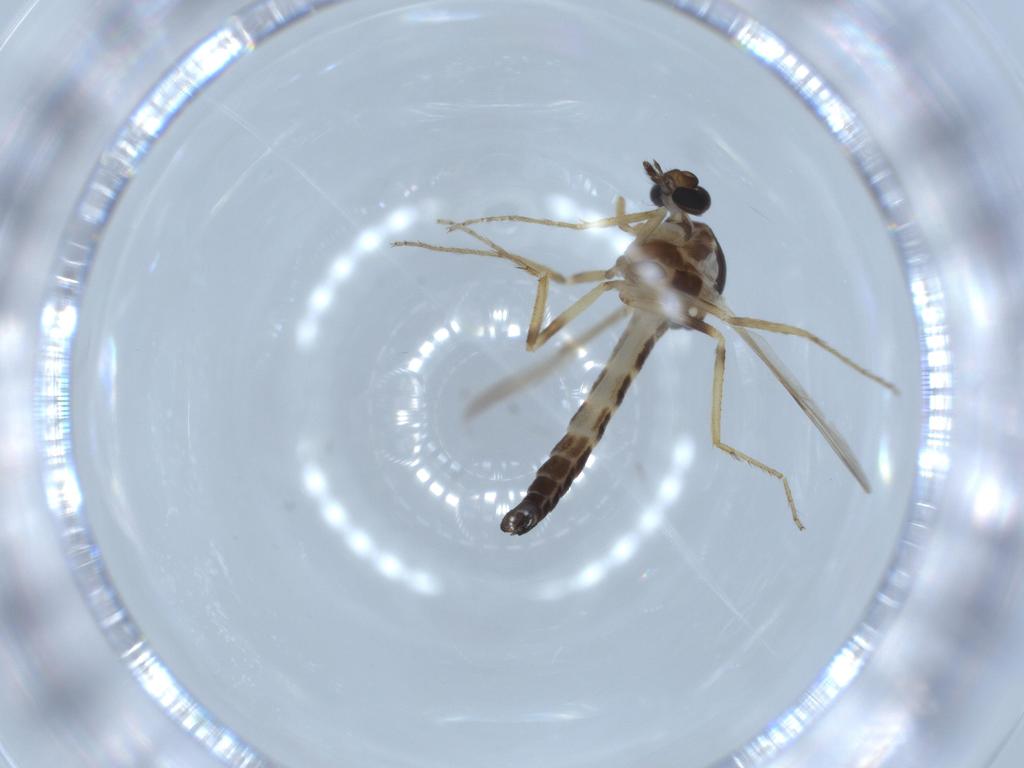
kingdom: Animalia
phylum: Arthropoda
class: Insecta
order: Diptera
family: Ceratopogonidae
